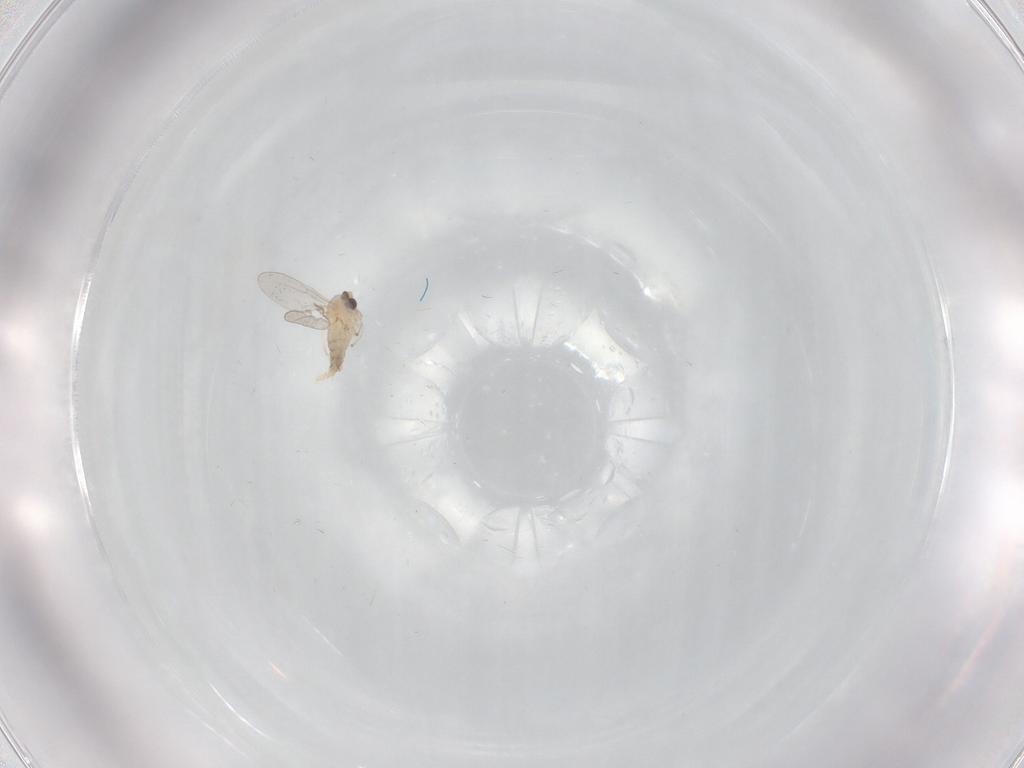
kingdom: Animalia
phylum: Arthropoda
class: Insecta
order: Diptera
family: Cecidomyiidae
